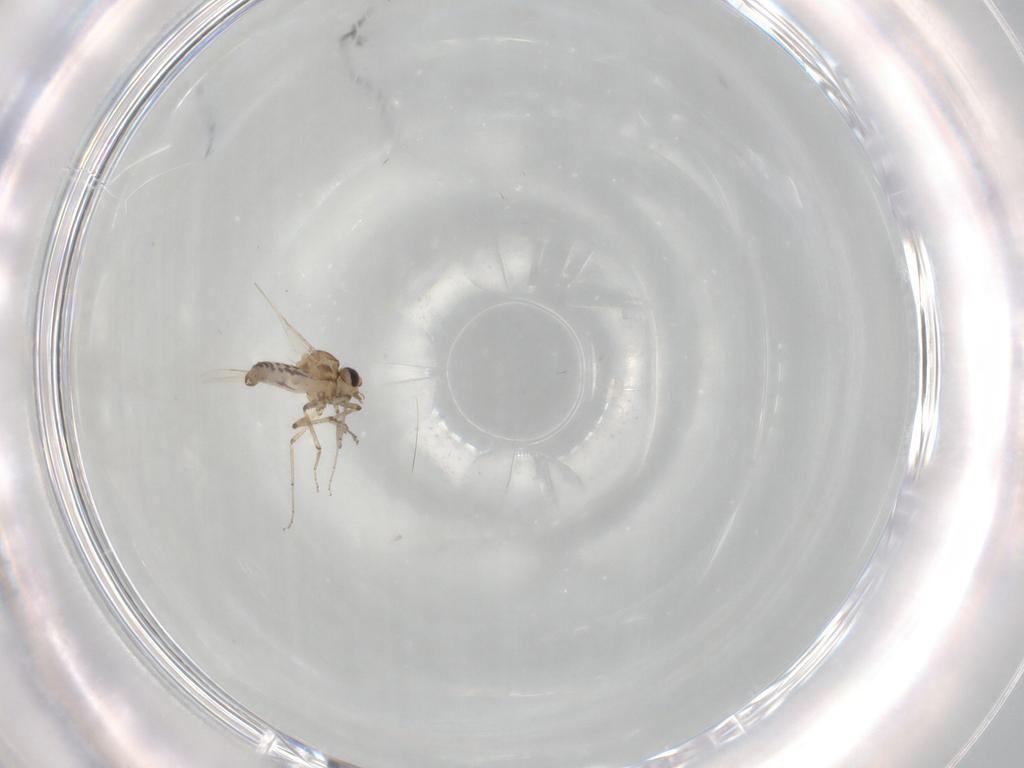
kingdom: Animalia
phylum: Arthropoda
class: Insecta
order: Diptera
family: Ceratopogonidae
